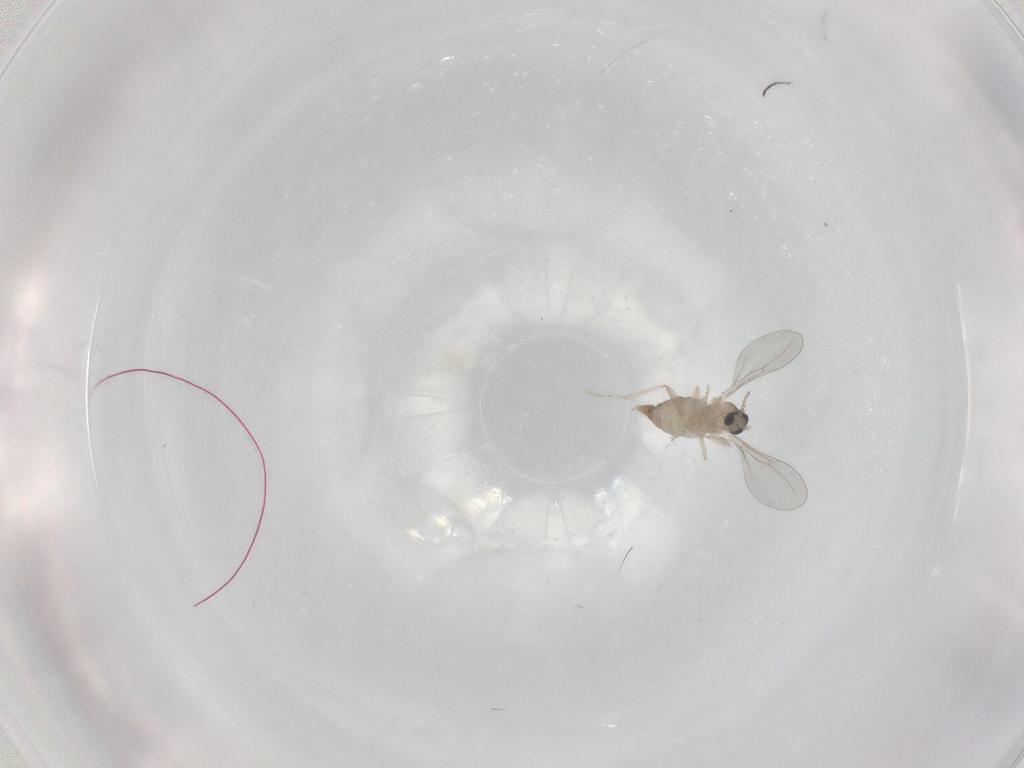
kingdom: Animalia
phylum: Arthropoda
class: Insecta
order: Diptera
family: Cecidomyiidae
